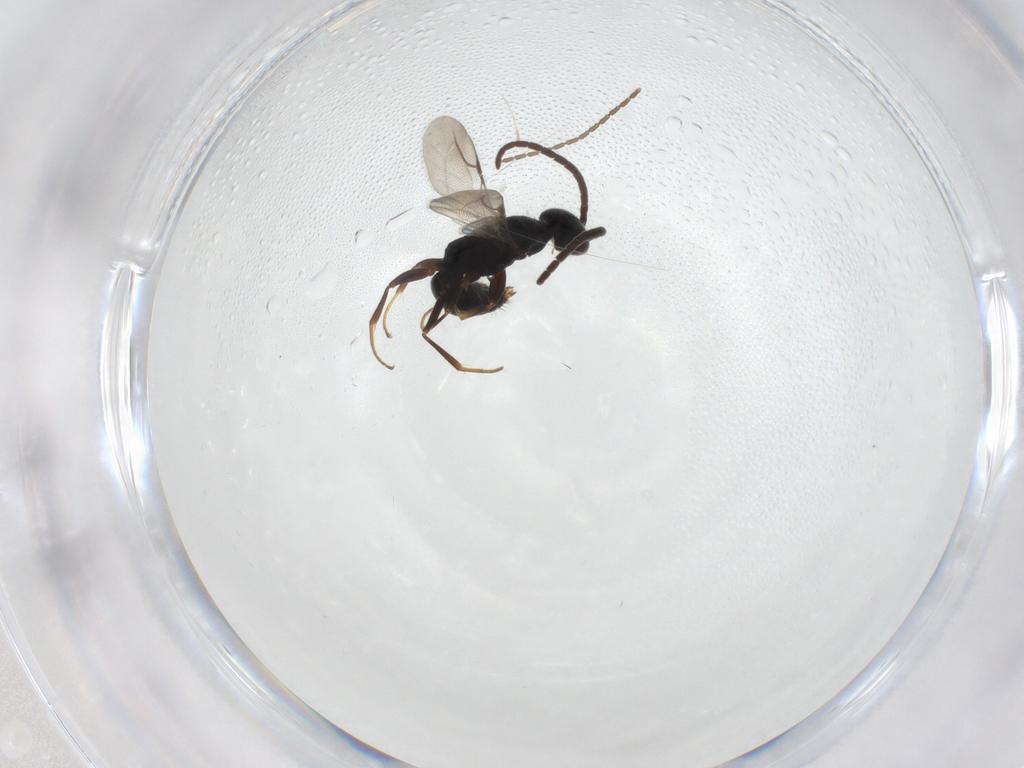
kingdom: Animalia
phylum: Arthropoda
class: Insecta
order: Hymenoptera
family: Bethylidae
